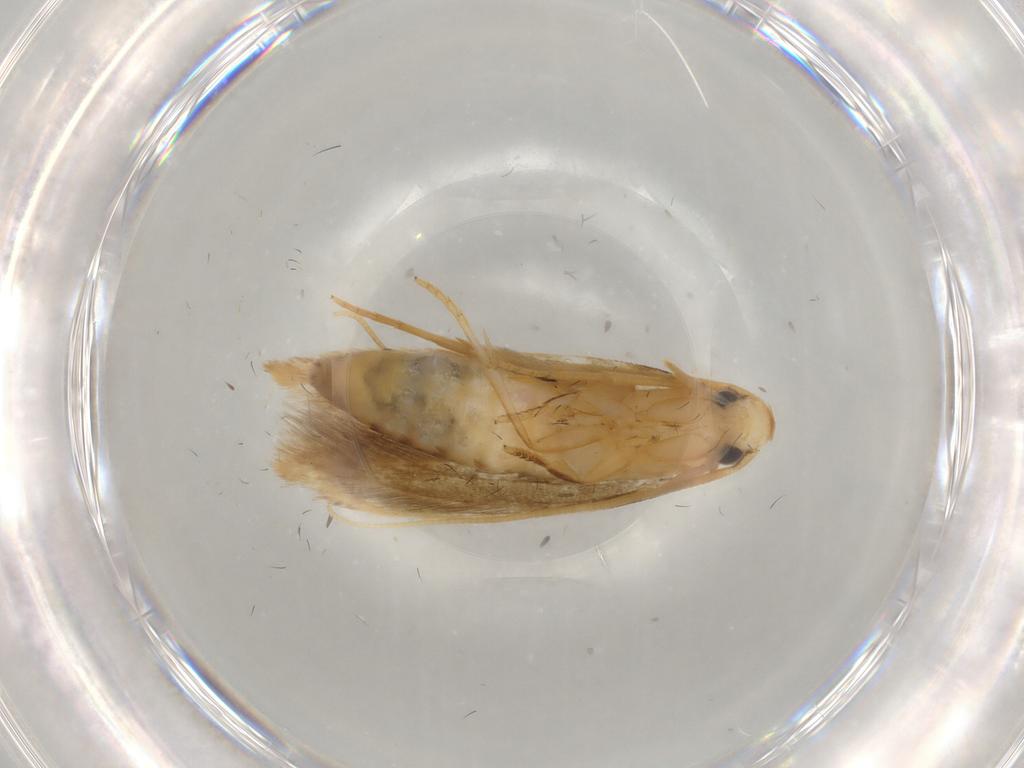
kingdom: Animalia
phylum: Arthropoda
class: Insecta
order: Lepidoptera
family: Tineidae
